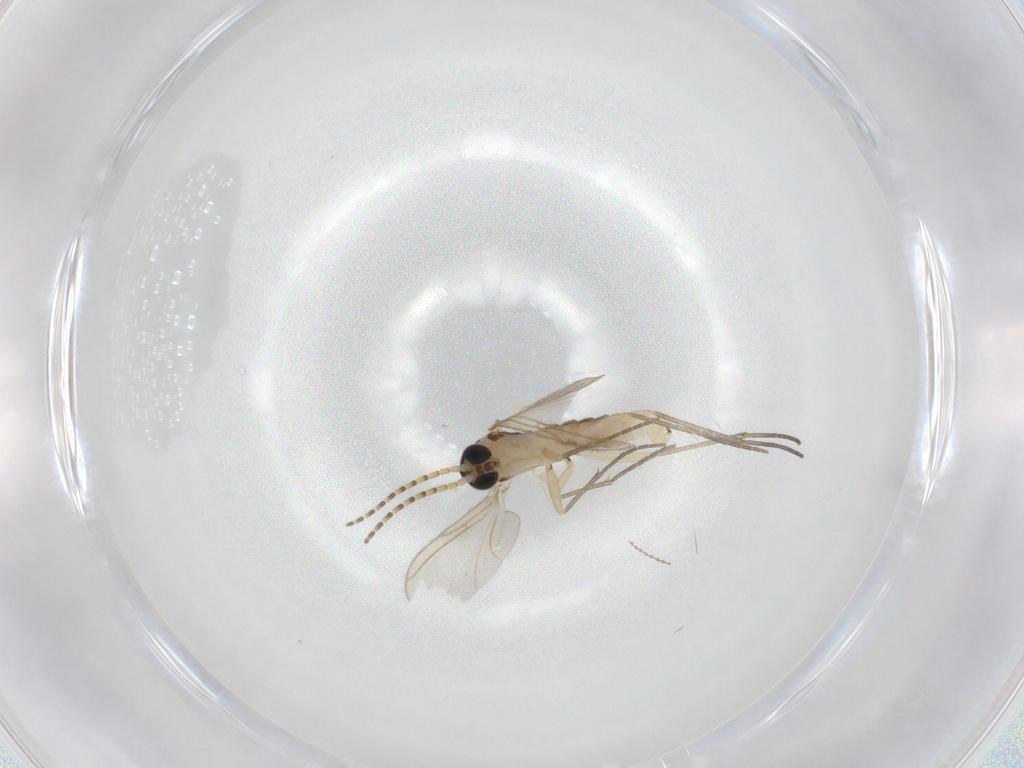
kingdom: Animalia
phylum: Arthropoda
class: Insecta
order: Diptera
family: Sciaridae
